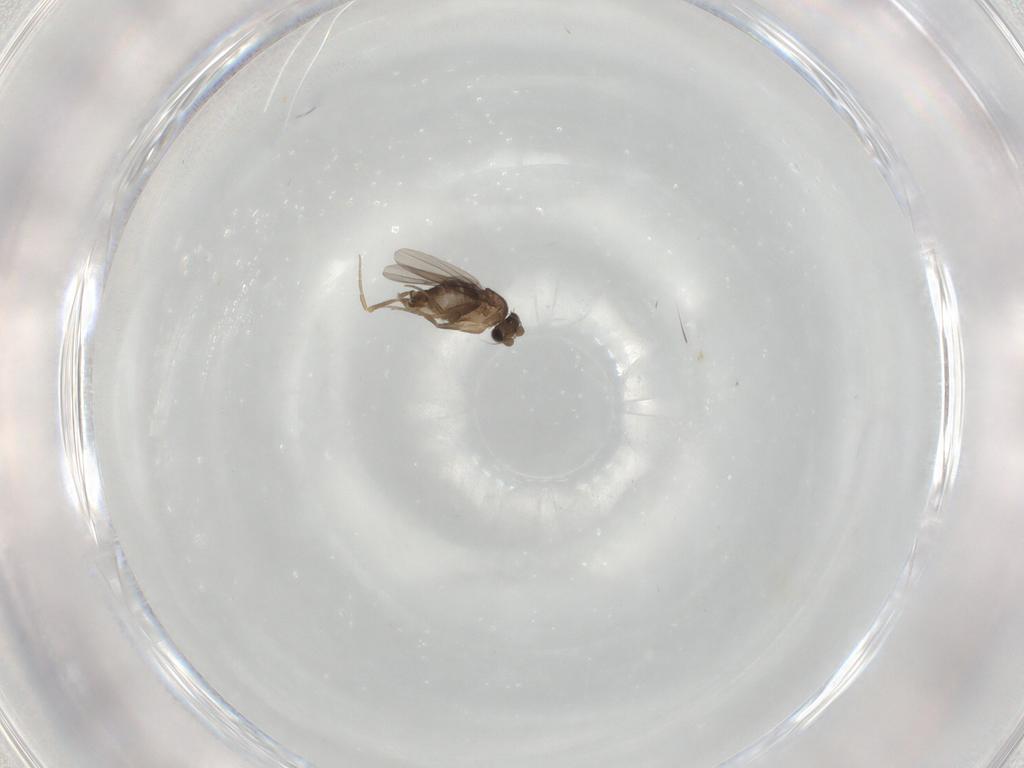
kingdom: Animalia
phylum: Arthropoda
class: Insecta
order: Diptera
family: Phoridae
